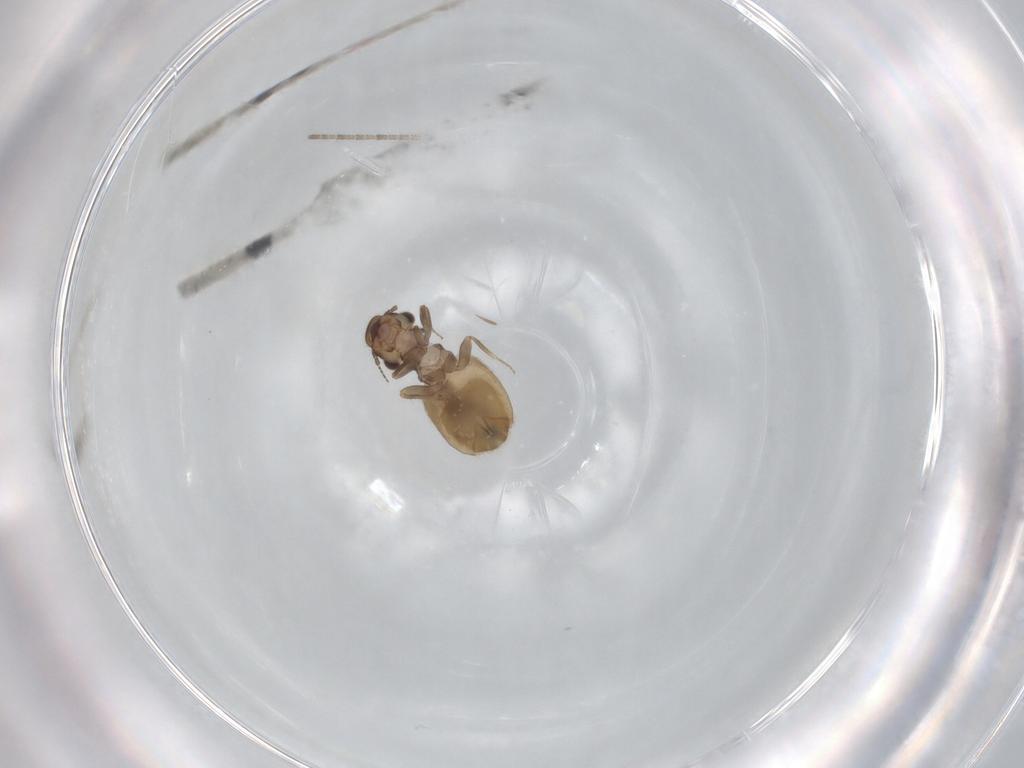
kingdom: Animalia
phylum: Arthropoda
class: Insecta
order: Psocodea
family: Trogiidae
